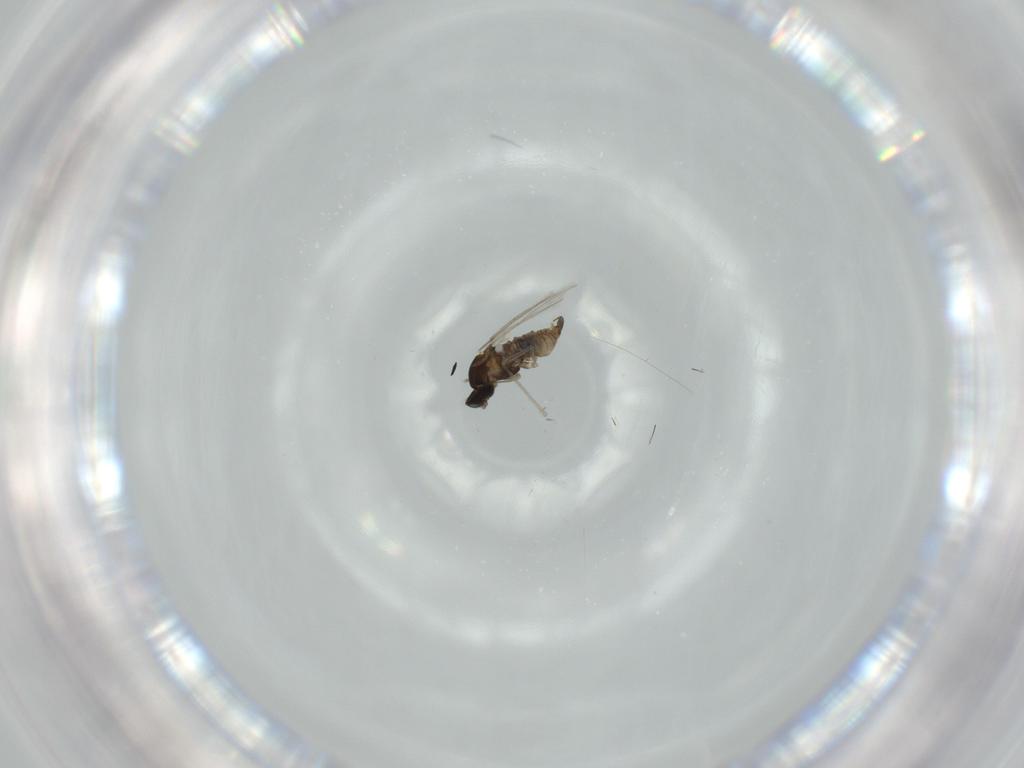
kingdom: Animalia
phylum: Arthropoda
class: Insecta
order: Diptera
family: Cecidomyiidae
